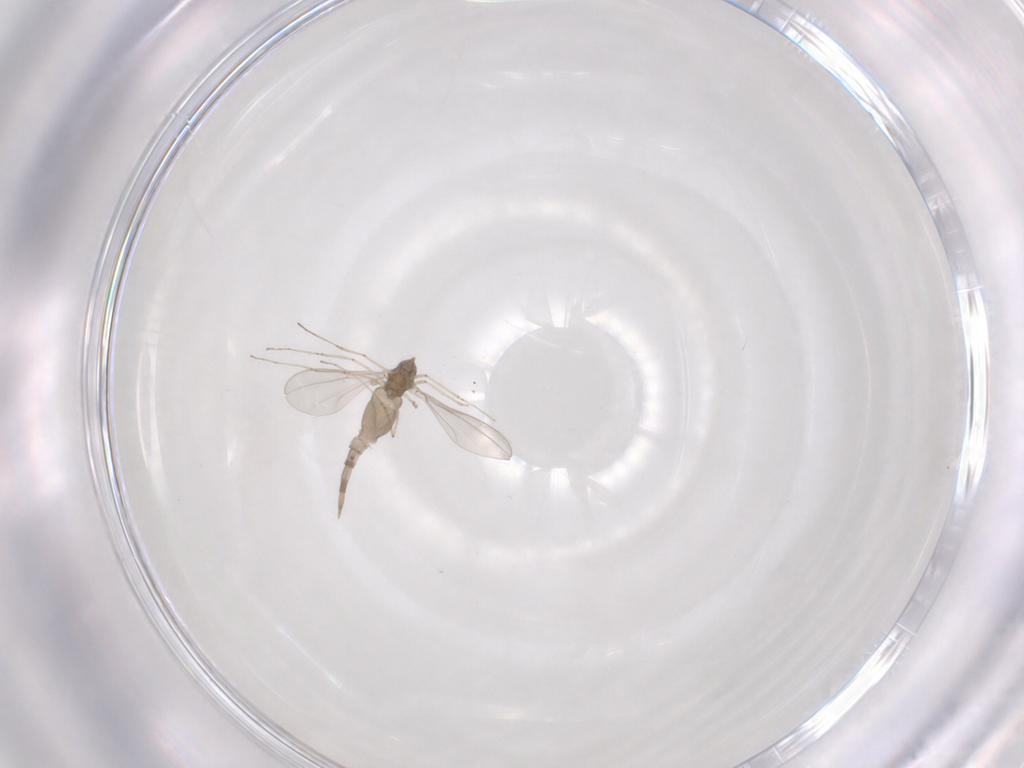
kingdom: Animalia
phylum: Arthropoda
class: Insecta
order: Diptera
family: Cecidomyiidae
